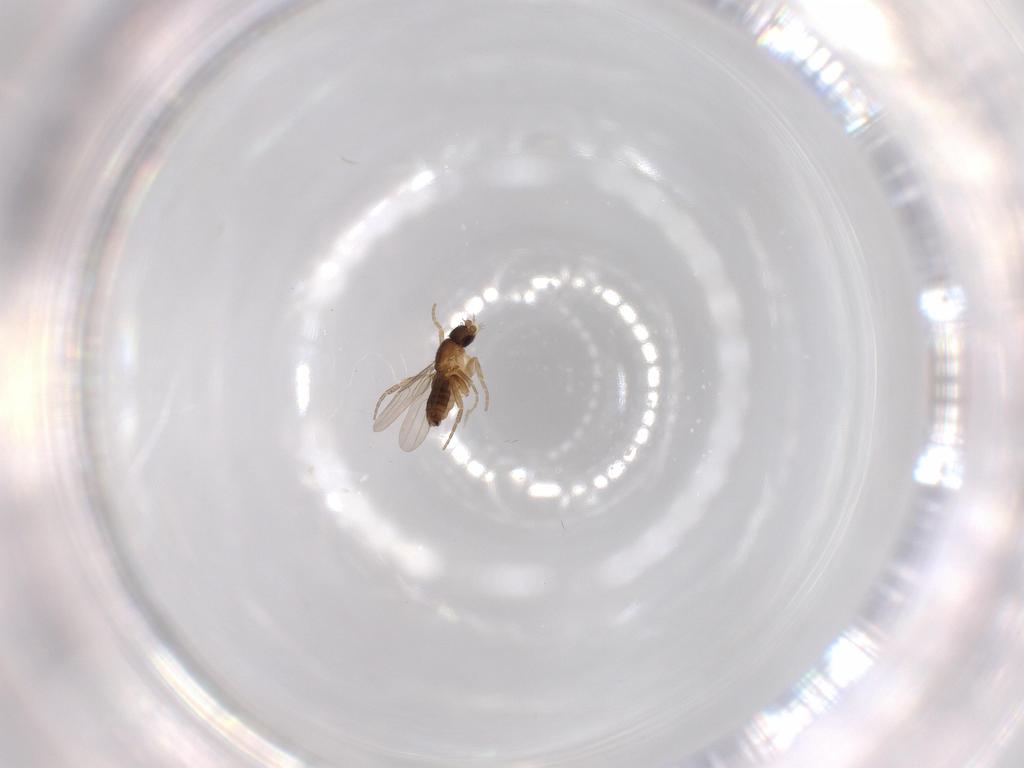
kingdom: Animalia
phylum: Arthropoda
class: Insecta
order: Diptera
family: Phoridae
